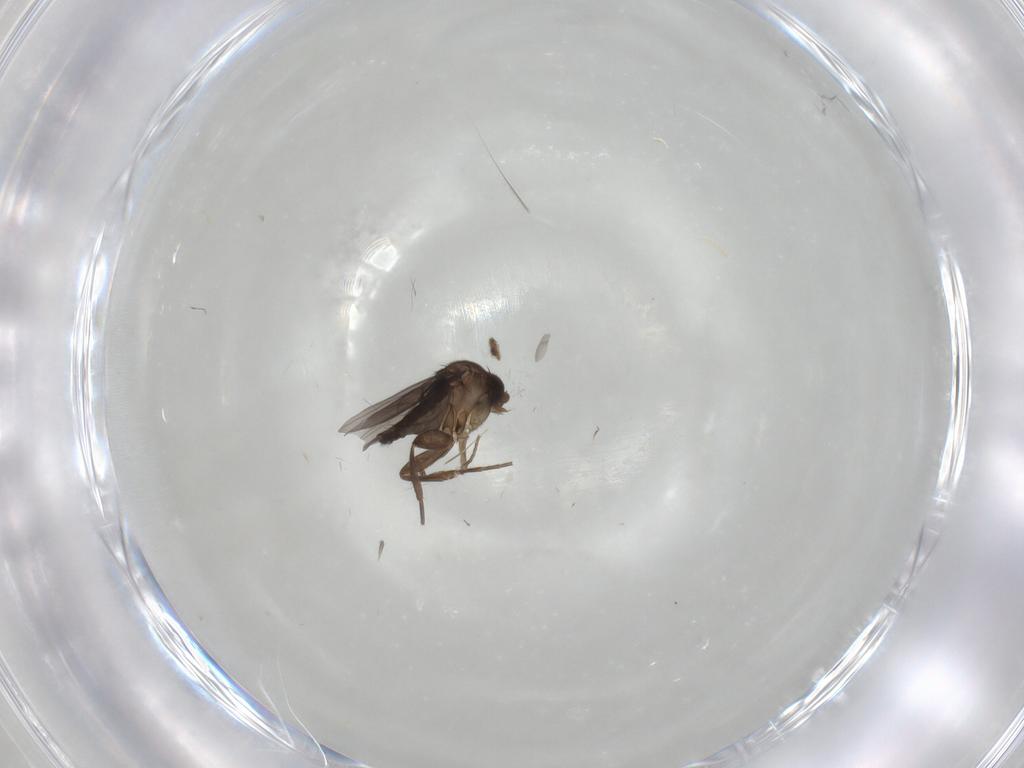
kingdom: Animalia
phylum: Arthropoda
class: Insecta
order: Diptera
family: Phoridae
